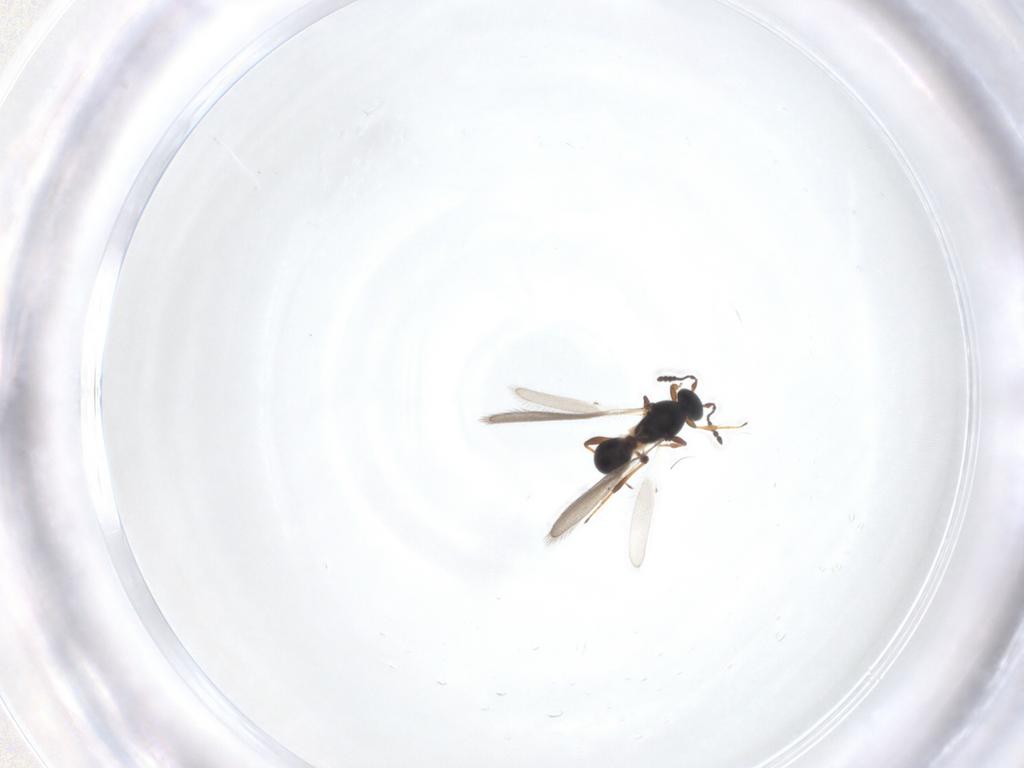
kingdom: Animalia
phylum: Arthropoda
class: Insecta
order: Hymenoptera
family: Platygastridae
